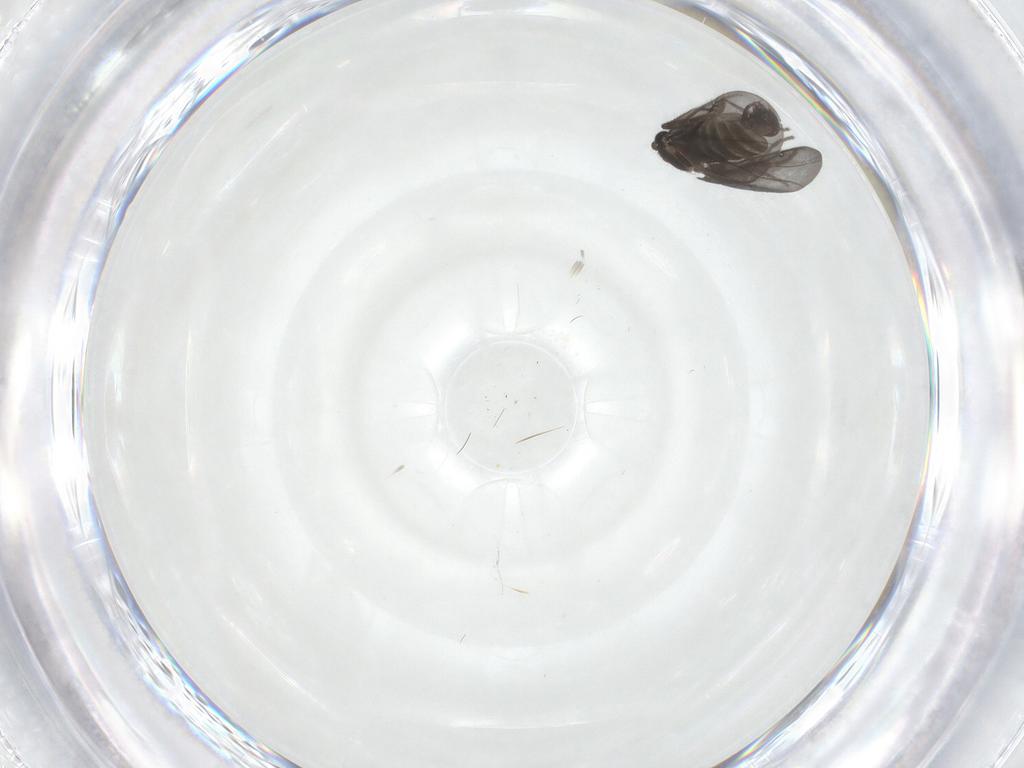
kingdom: Animalia
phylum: Arthropoda
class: Insecta
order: Diptera
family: Phoridae
